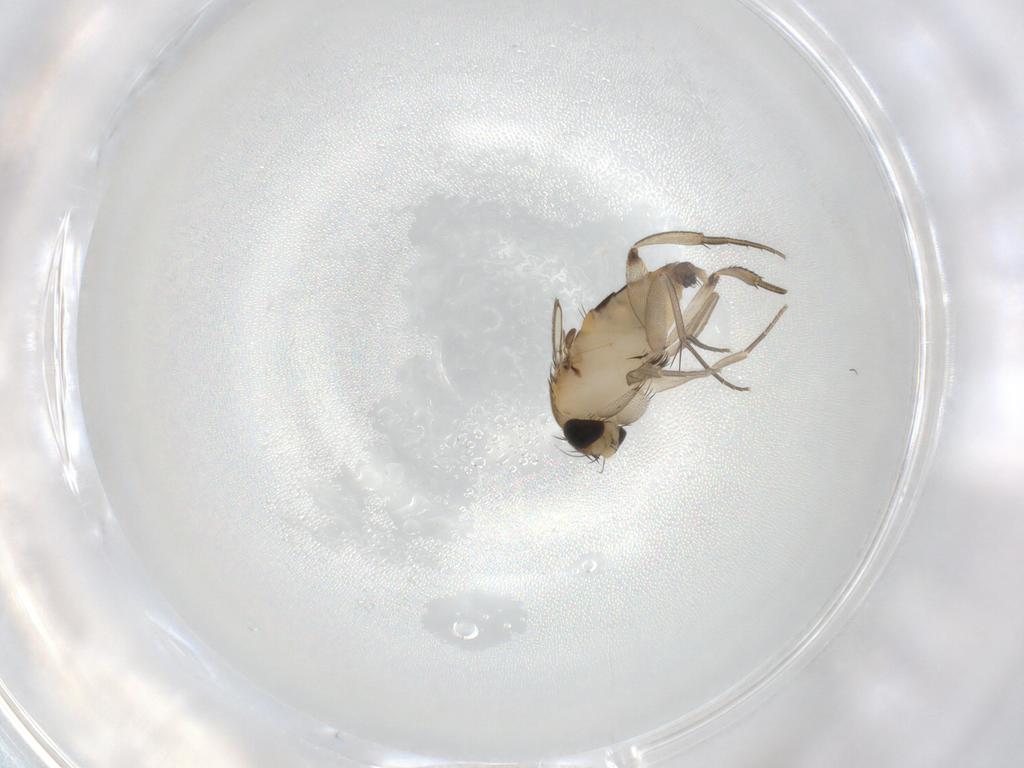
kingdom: Animalia
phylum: Arthropoda
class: Insecta
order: Diptera
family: Phoridae
